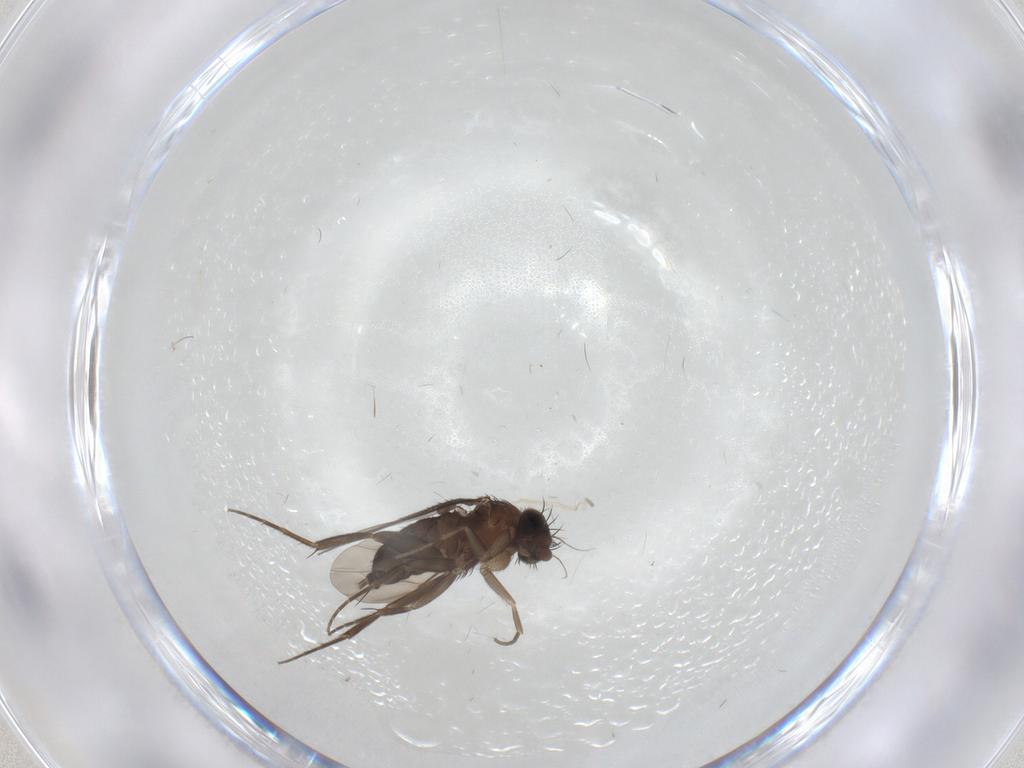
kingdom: Animalia
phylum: Arthropoda
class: Insecta
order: Diptera
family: Phoridae
